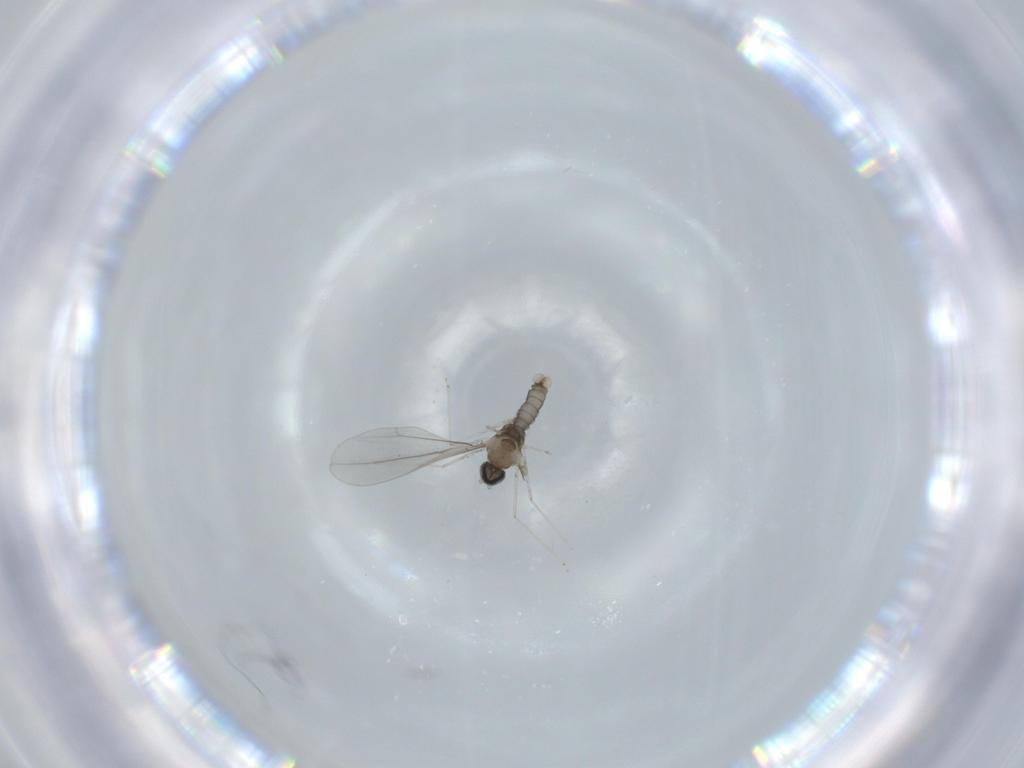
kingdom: Animalia
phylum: Arthropoda
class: Insecta
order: Diptera
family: Cecidomyiidae
